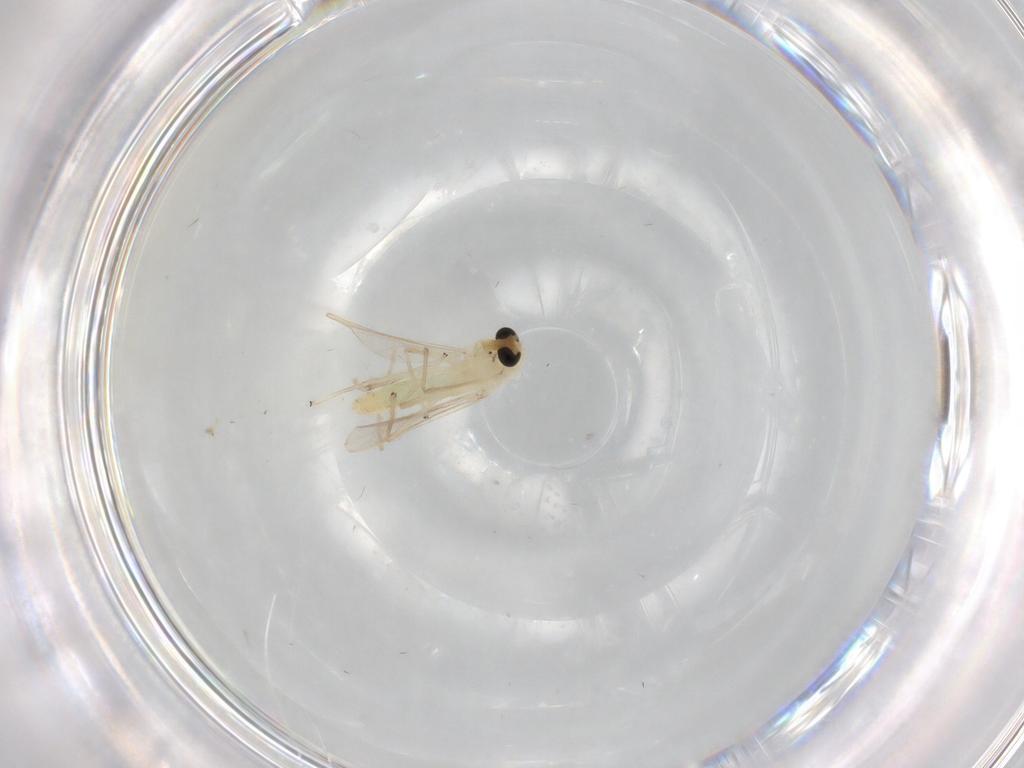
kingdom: Animalia
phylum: Arthropoda
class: Insecta
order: Diptera
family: Chironomidae
